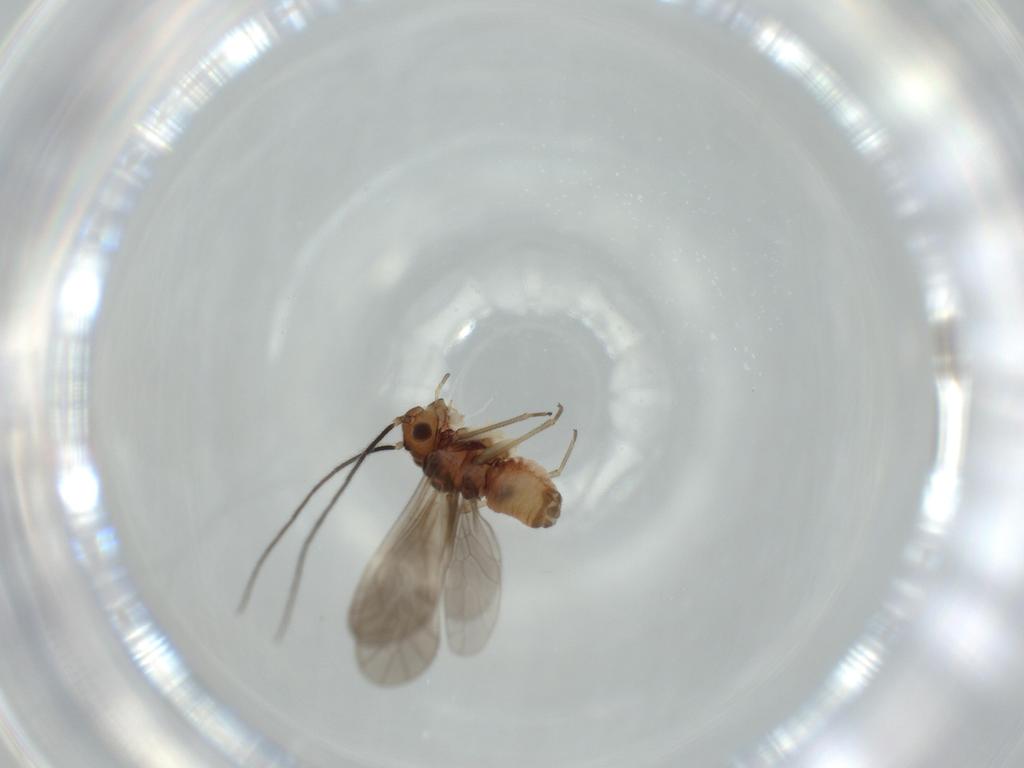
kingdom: Animalia
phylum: Arthropoda
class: Insecta
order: Psocodea
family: Caeciliusidae
